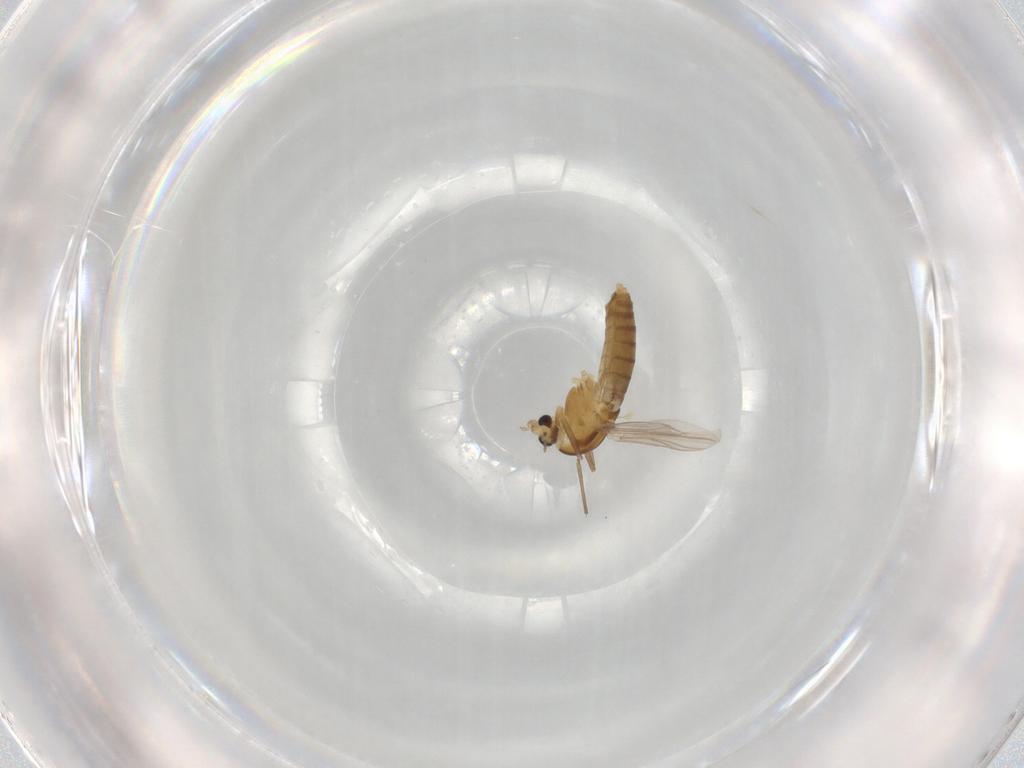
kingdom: Animalia
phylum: Arthropoda
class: Insecta
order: Diptera
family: Chironomidae
